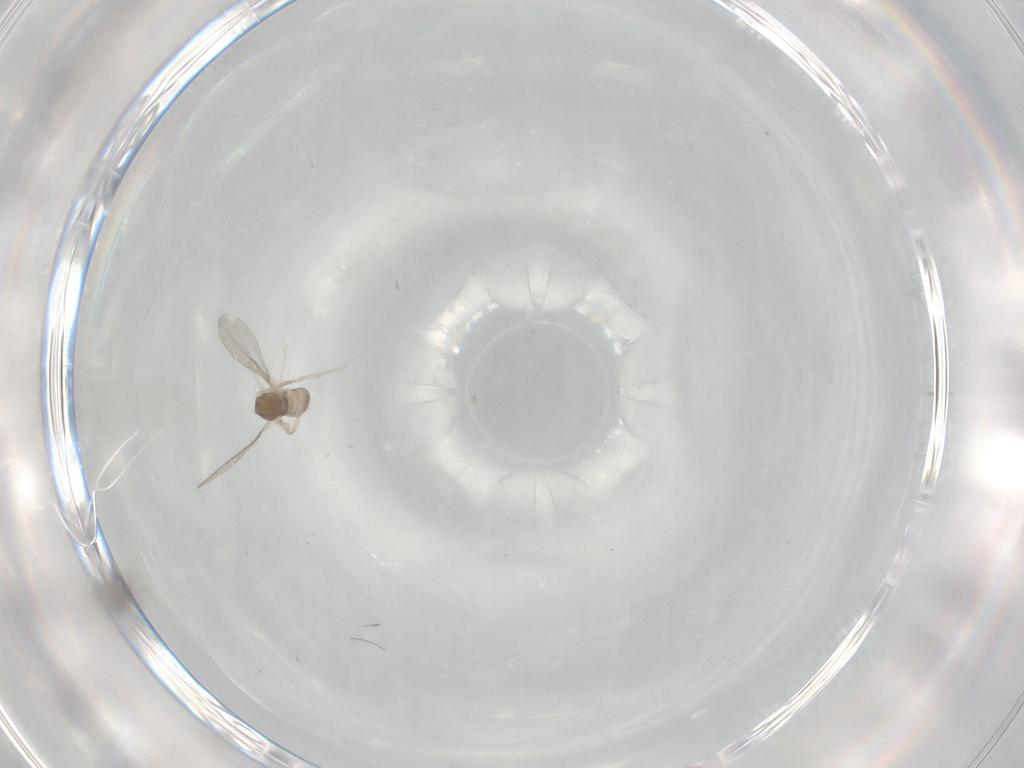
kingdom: Animalia
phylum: Arthropoda
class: Insecta
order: Diptera
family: Cecidomyiidae
